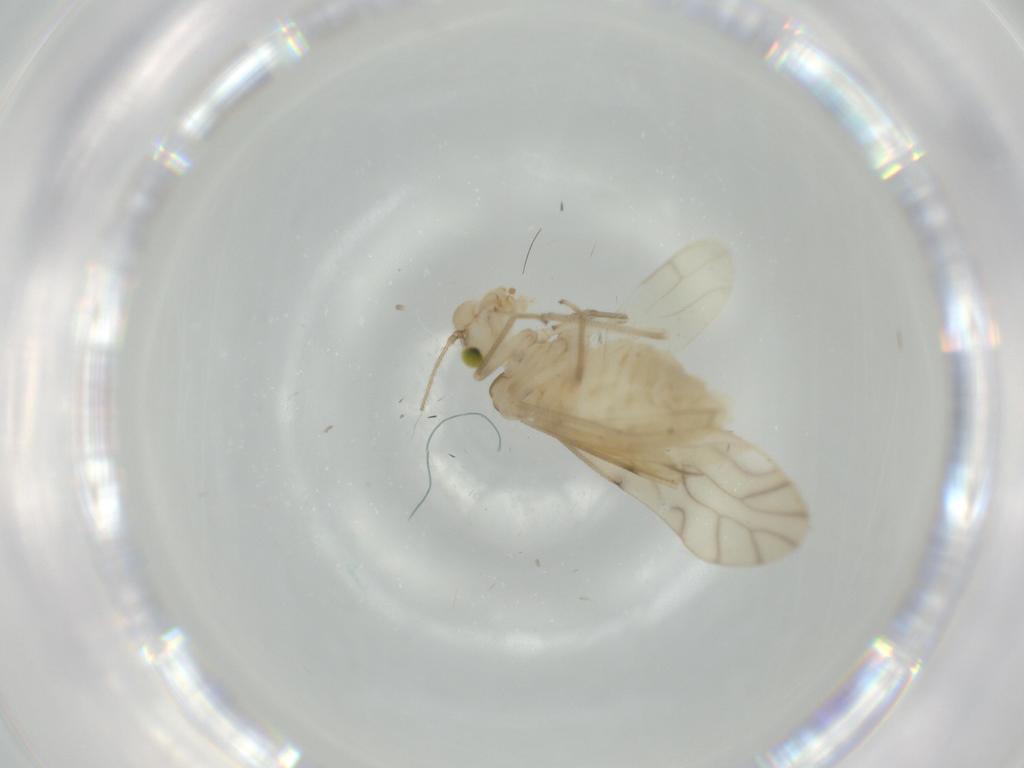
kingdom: Animalia
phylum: Arthropoda
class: Insecta
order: Psocodea
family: Caeciliusidae
